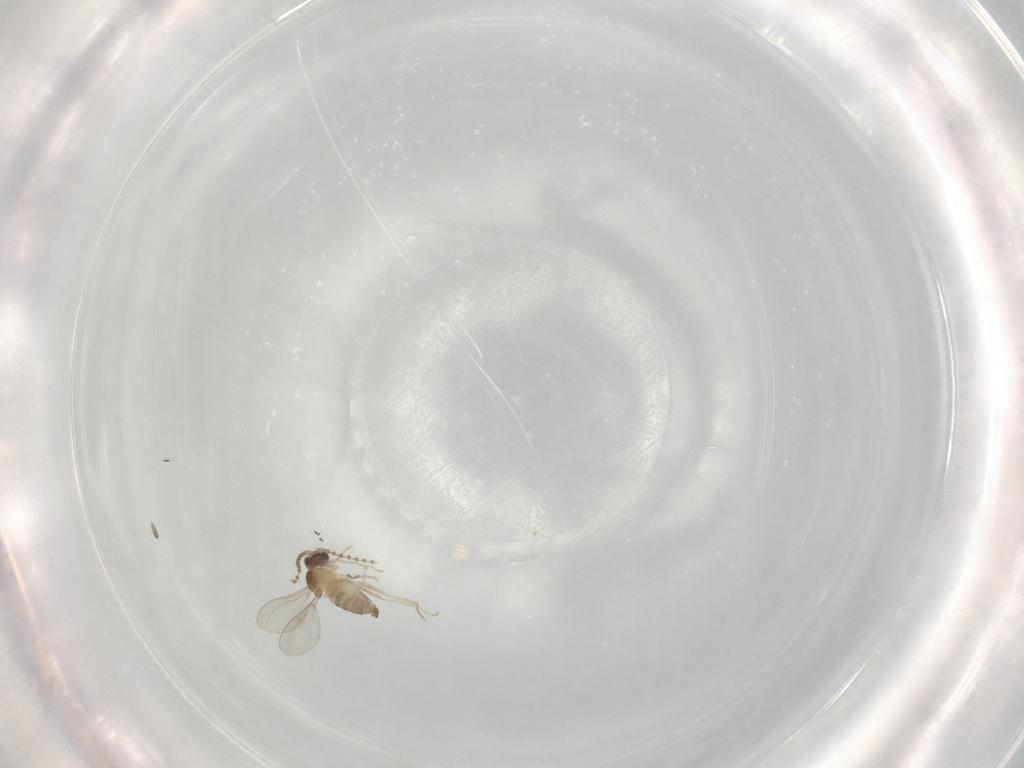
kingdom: Animalia
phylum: Arthropoda
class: Insecta
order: Diptera
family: Cecidomyiidae
